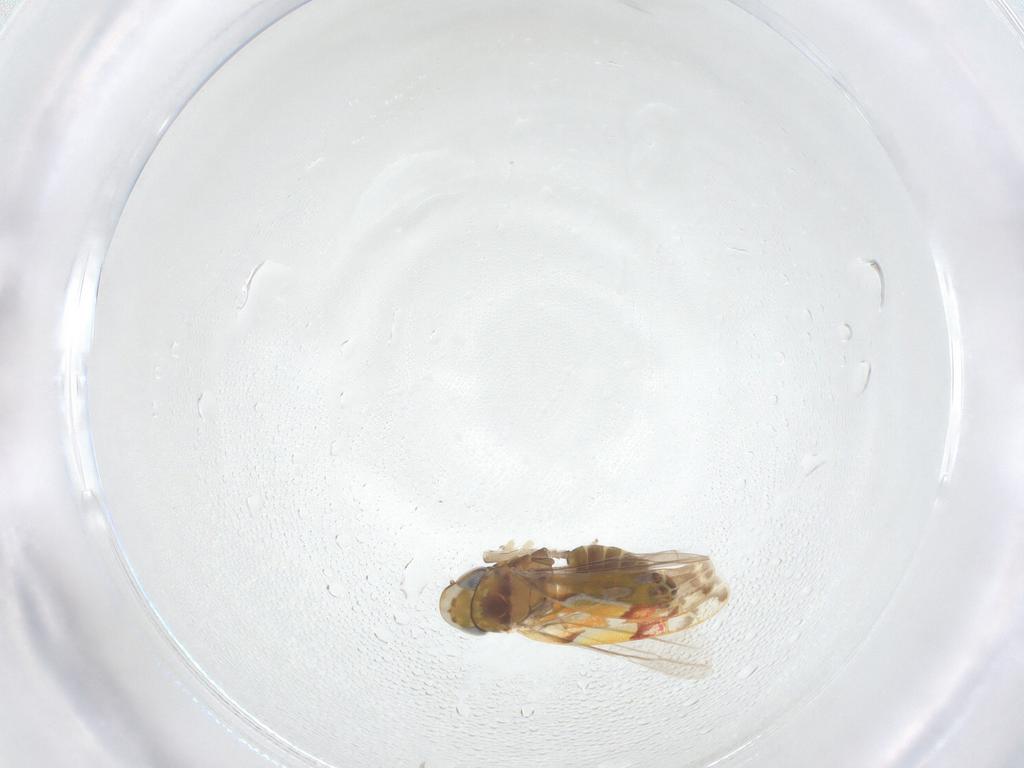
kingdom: Animalia
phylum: Arthropoda
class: Insecta
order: Hemiptera
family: Cicadellidae
